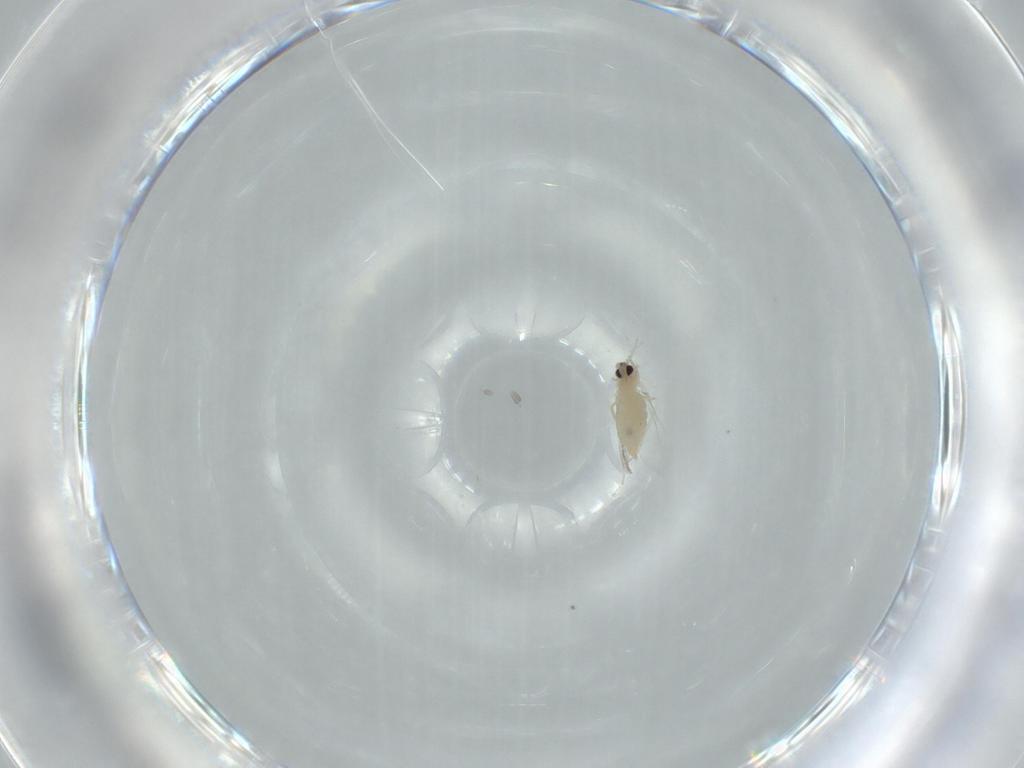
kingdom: Animalia
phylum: Arthropoda
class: Insecta
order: Diptera
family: Cecidomyiidae
